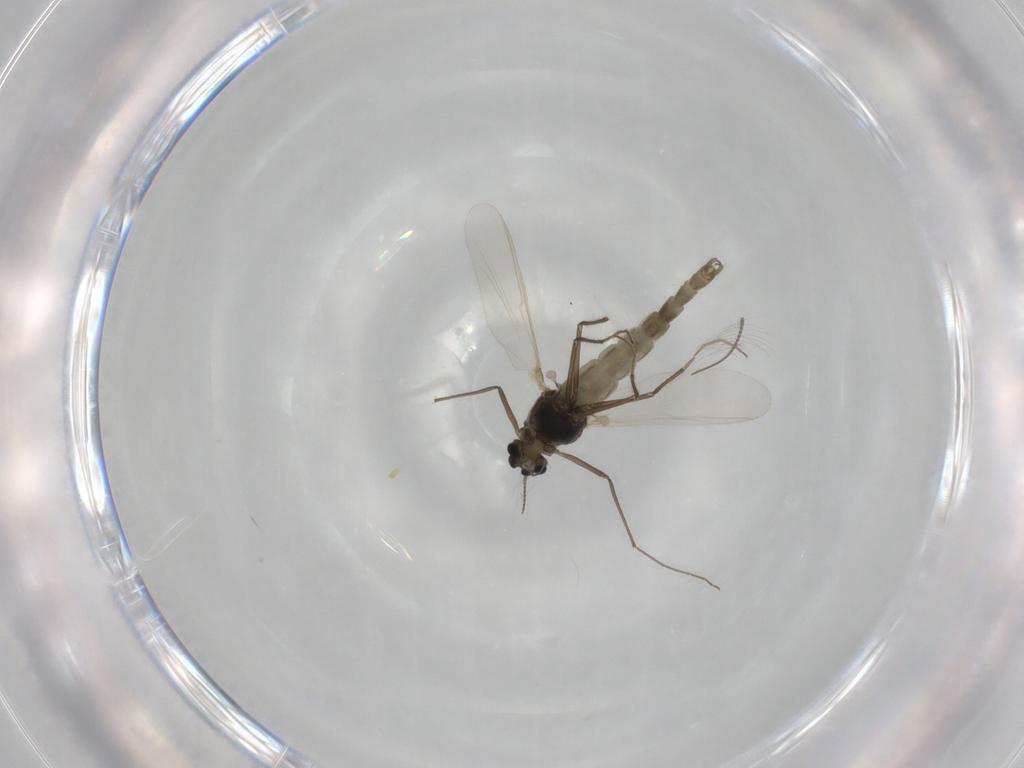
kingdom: Animalia
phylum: Arthropoda
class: Insecta
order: Diptera
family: Chironomidae
